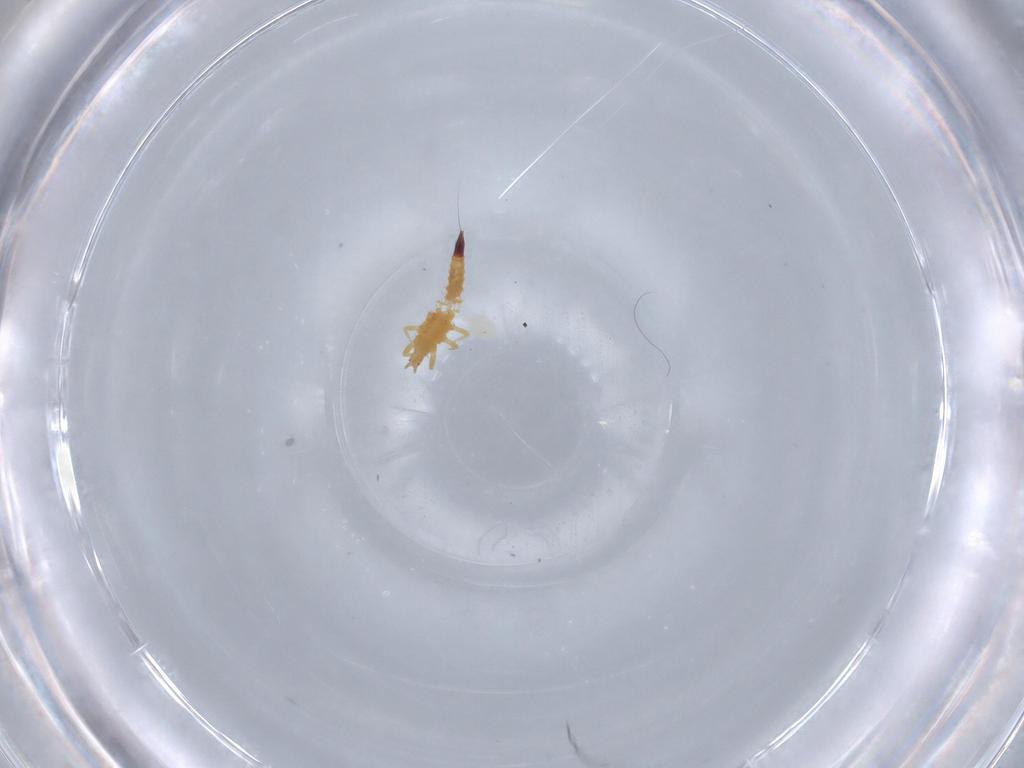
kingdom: Animalia
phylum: Arthropoda
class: Insecta
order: Thysanoptera
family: Phlaeothripidae
